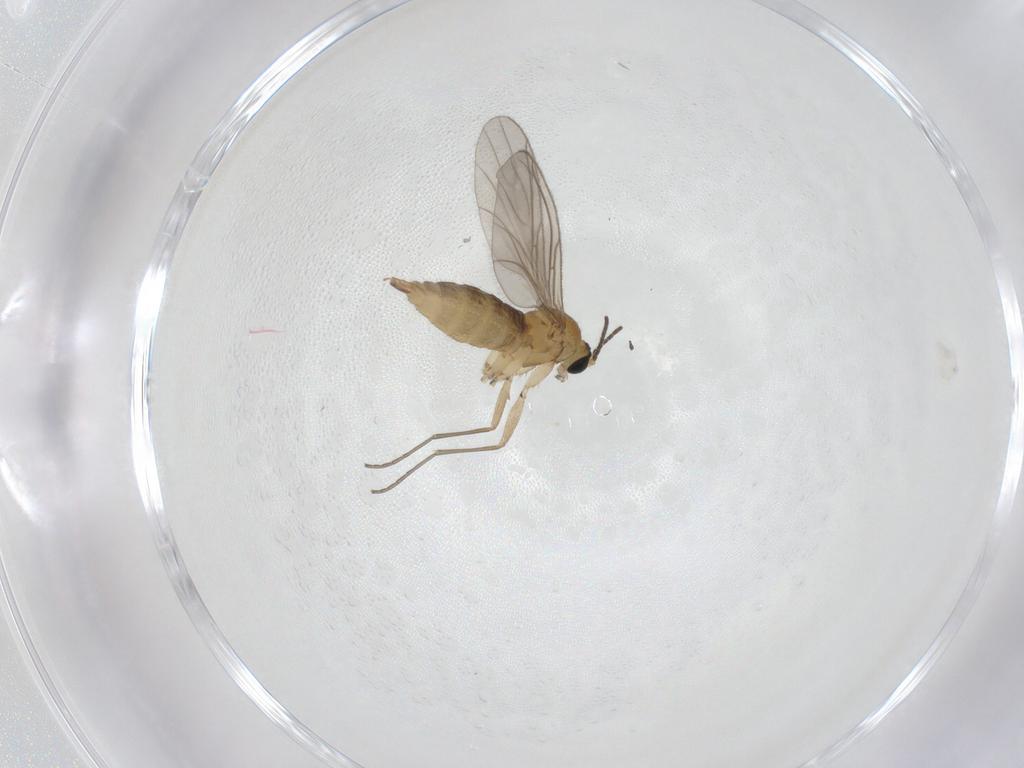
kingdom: Animalia
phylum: Arthropoda
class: Insecta
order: Diptera
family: Sciaridae
